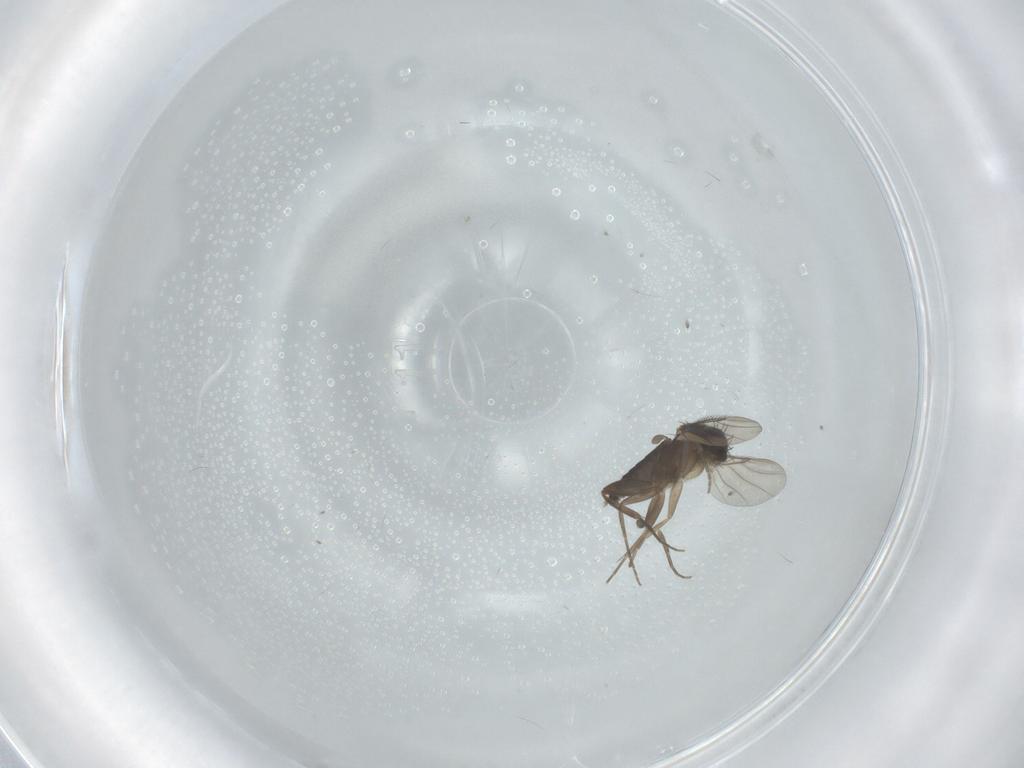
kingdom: Animalia
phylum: Arthropoda
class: Insecta
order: Diptera
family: Phoridae
